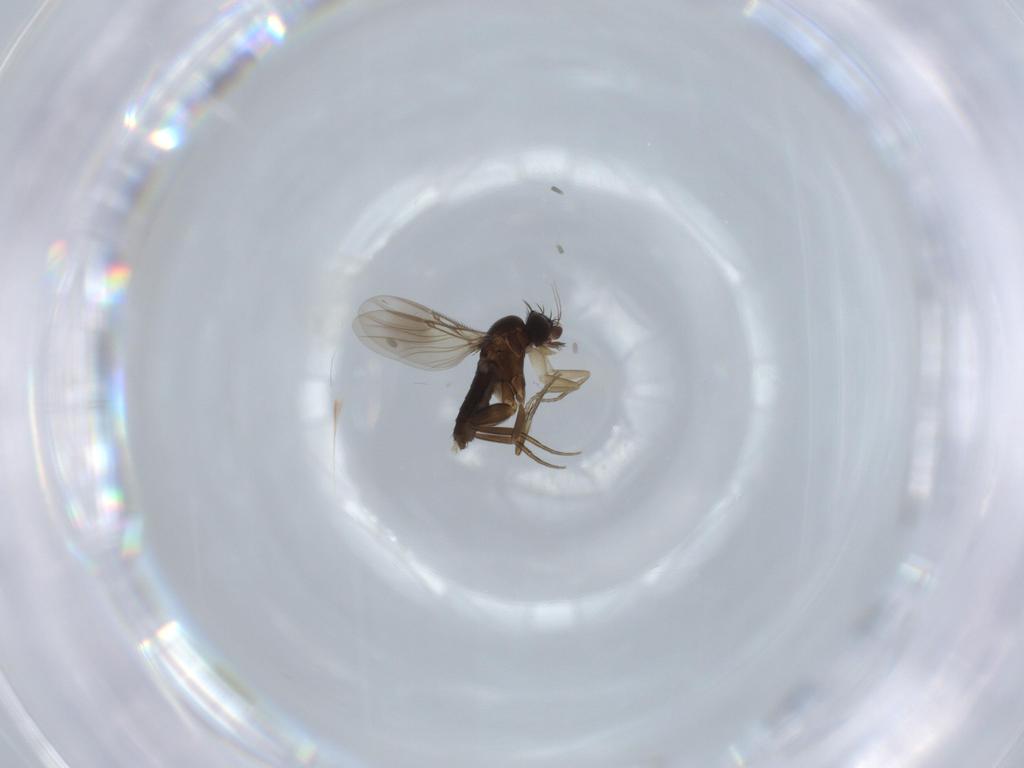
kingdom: Animalia
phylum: Arthropoda
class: Insecta
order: Diptera
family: Phoridae
